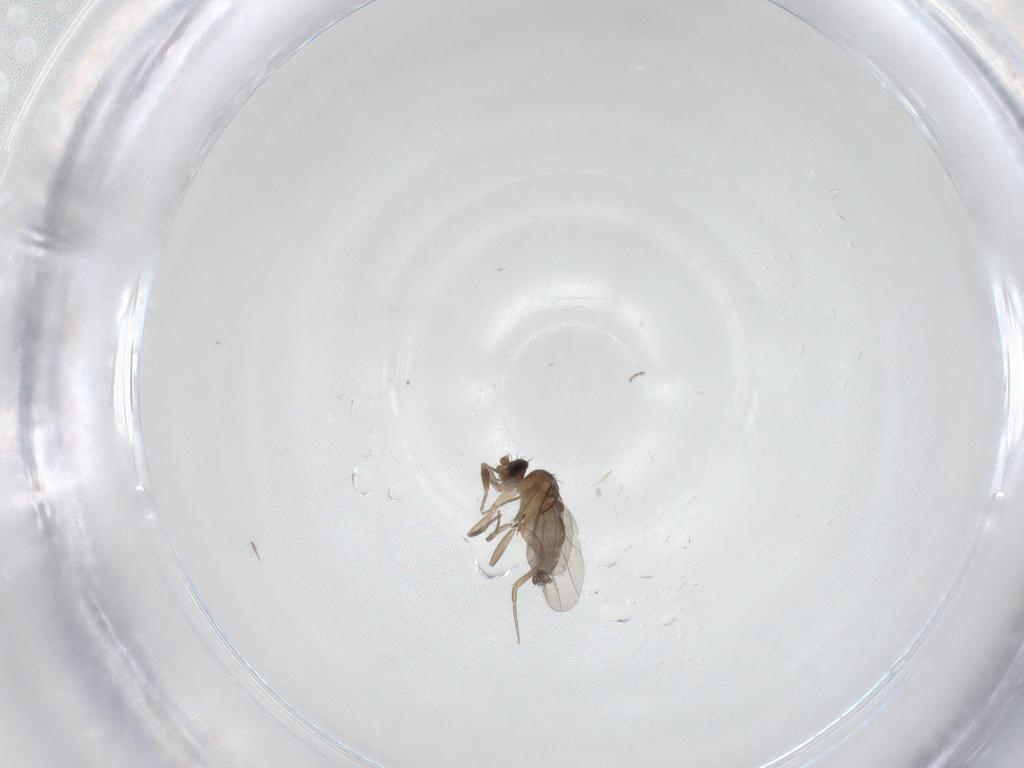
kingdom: Animalia
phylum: Arthropoda
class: Insecta
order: Diptera
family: Phoridae
